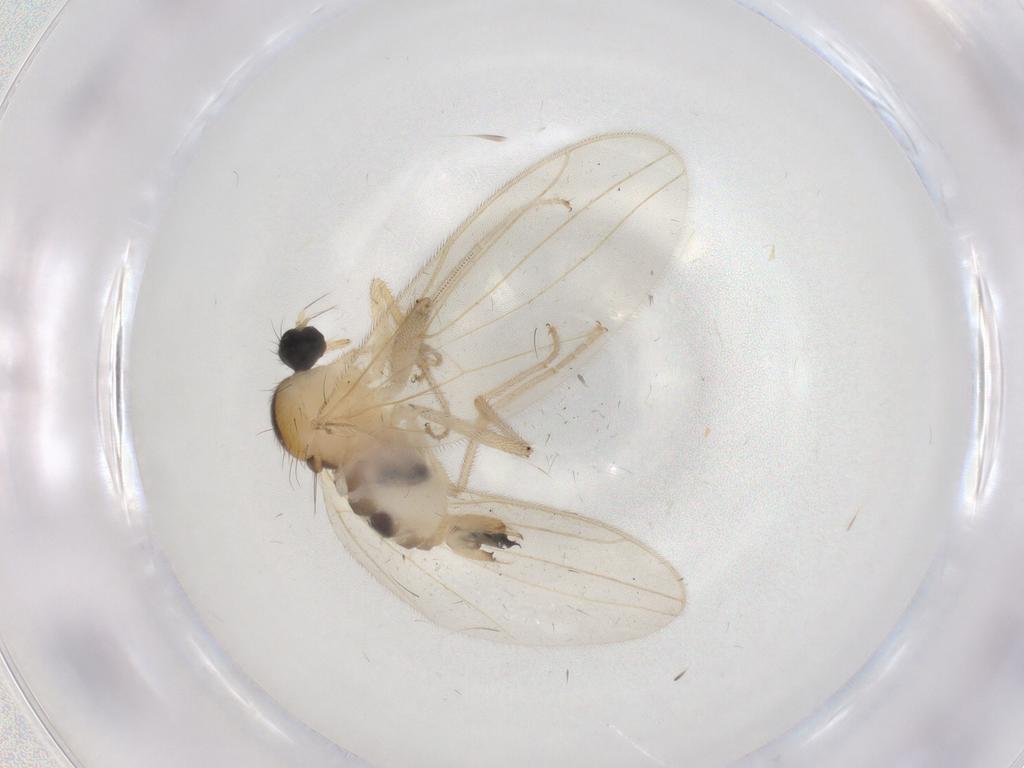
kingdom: Animalia
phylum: Arthropoda
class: Insecta
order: Diptera
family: Hybotidae
